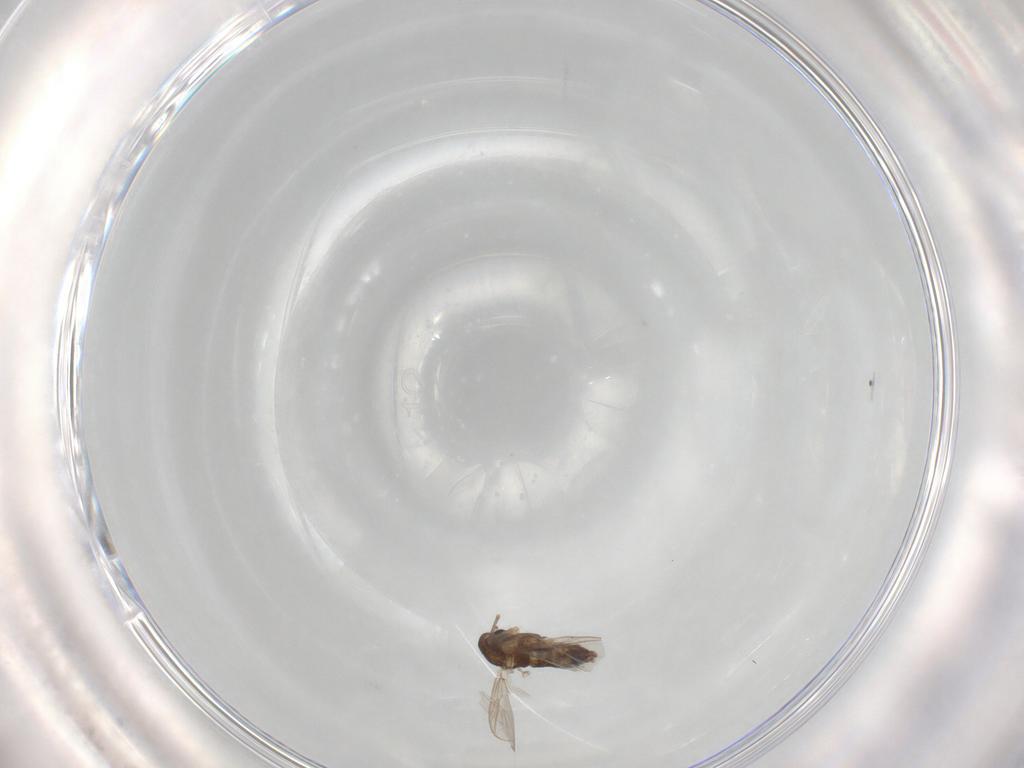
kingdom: Animalia
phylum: Arthropoda
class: Insecta
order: Diptera
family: Chironomidae
